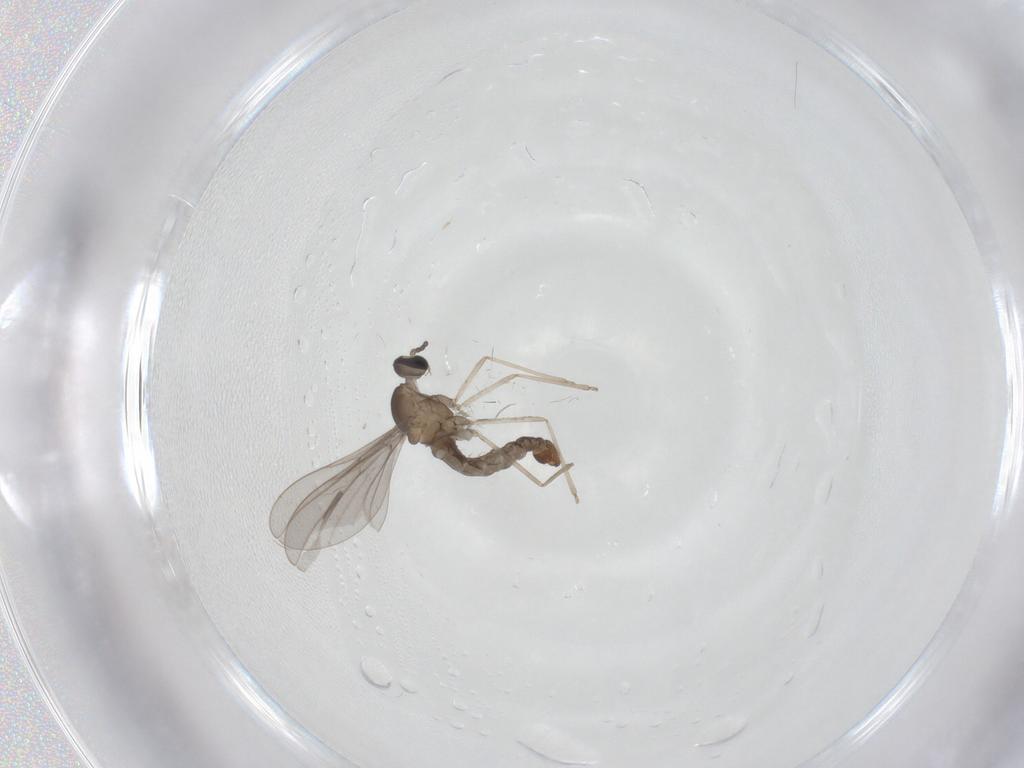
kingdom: Animalia
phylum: Arthropoda
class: Insecta
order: Diptera
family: Cecidomyiidae
